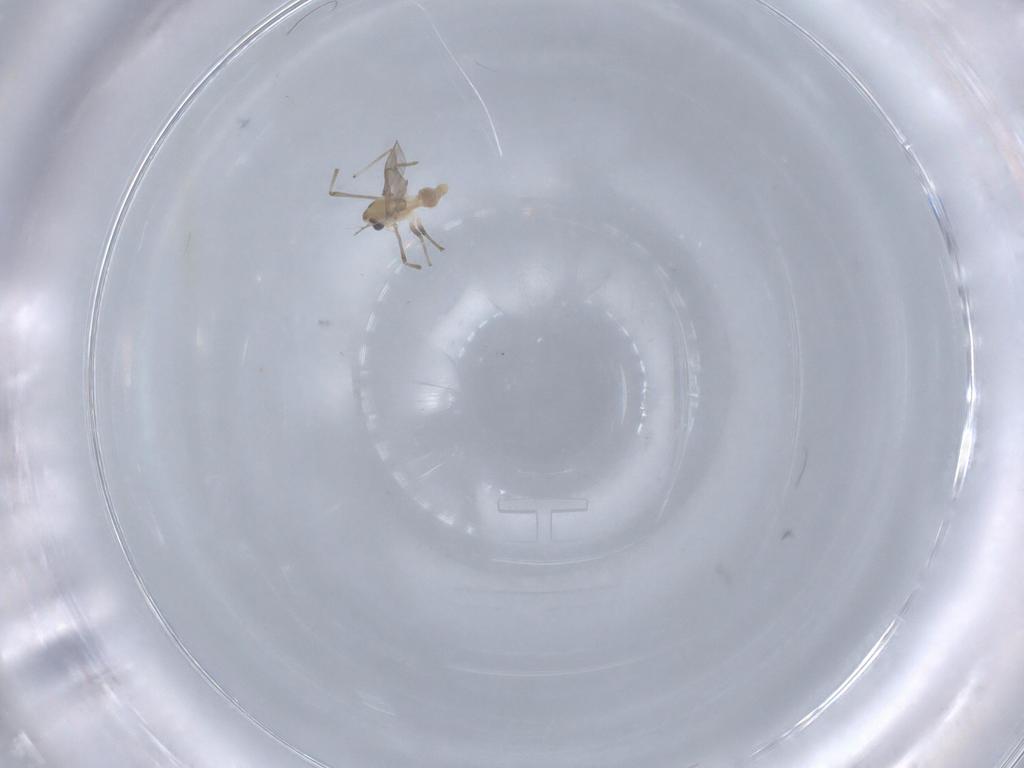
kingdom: Animalia
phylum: Arthropoda
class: Insecta
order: Diptera
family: Chironomidae
